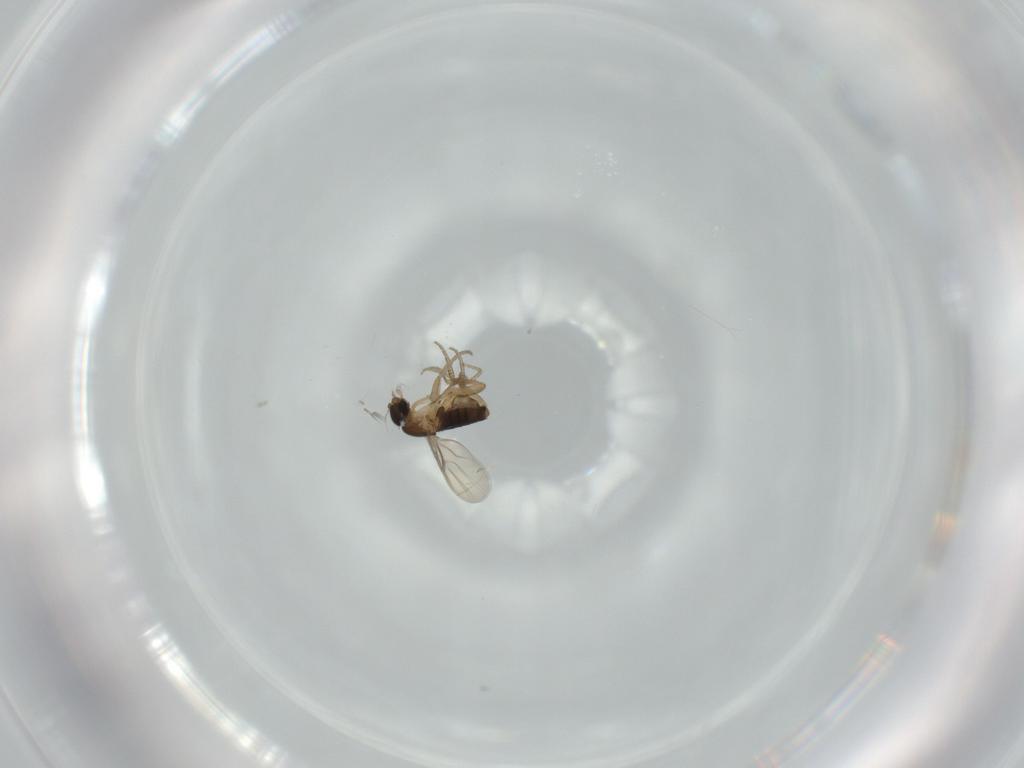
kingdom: Animalia
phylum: Arthropoda
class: Insecta
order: Diptera
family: Phoridae
